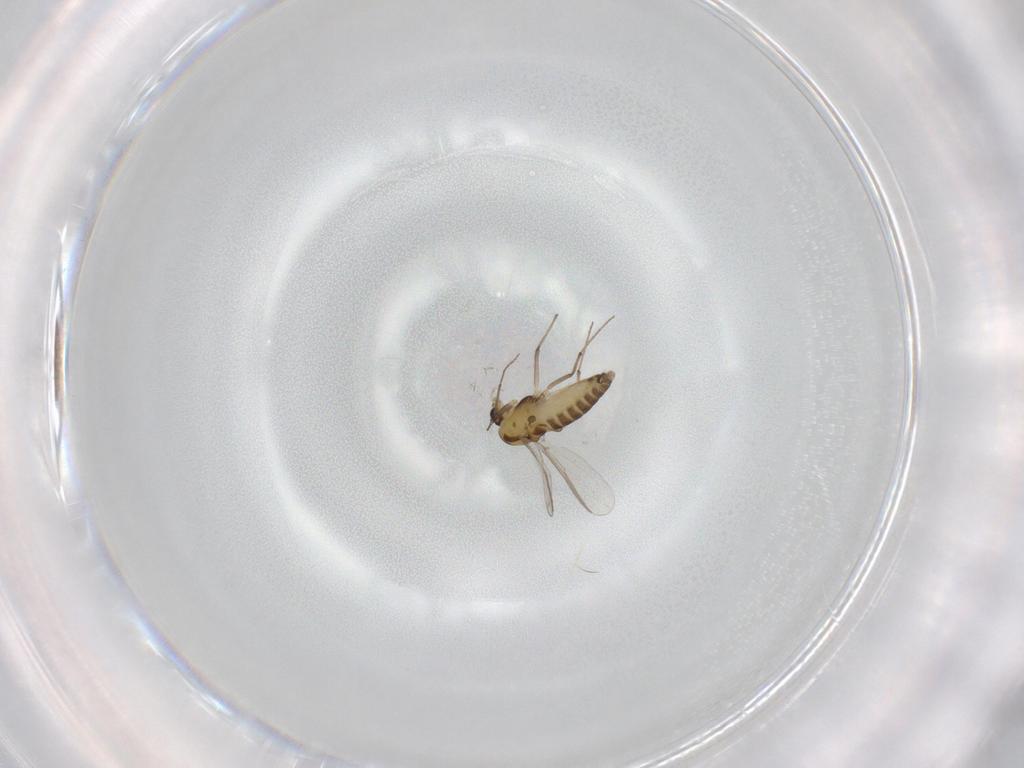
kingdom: Animalia
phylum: Arthropoda
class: Insecta
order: Diptera
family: Chironomidae
